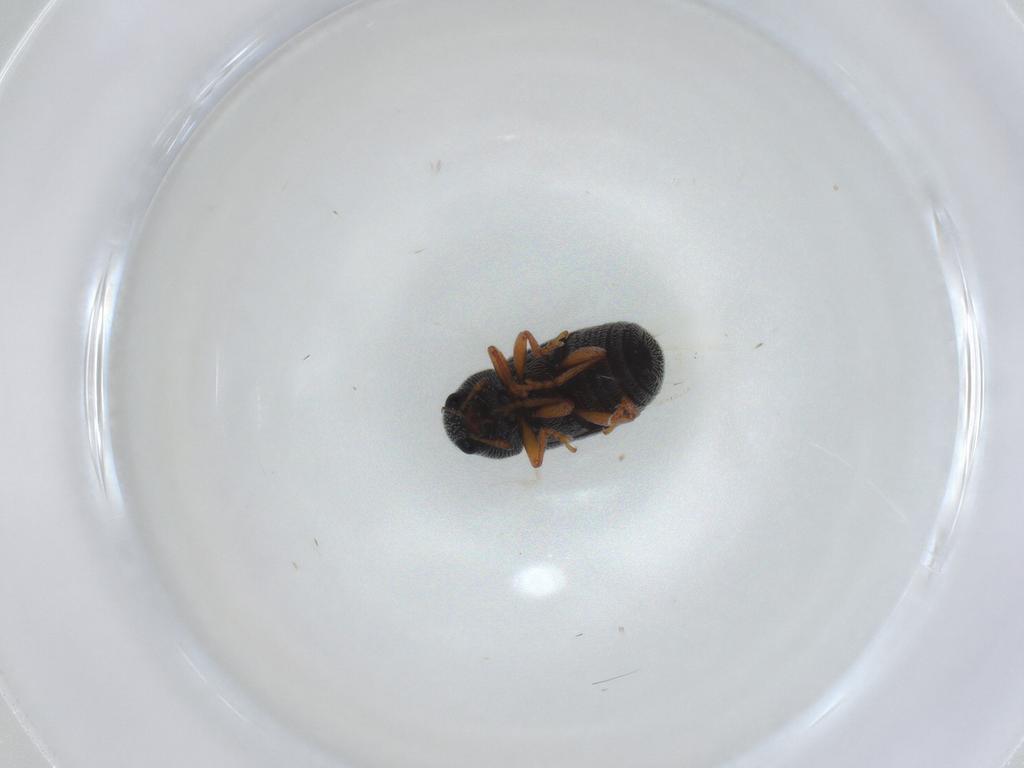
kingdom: Animalia
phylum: Arthropoda
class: Insecta
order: Coleoptera
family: Anthribidae
